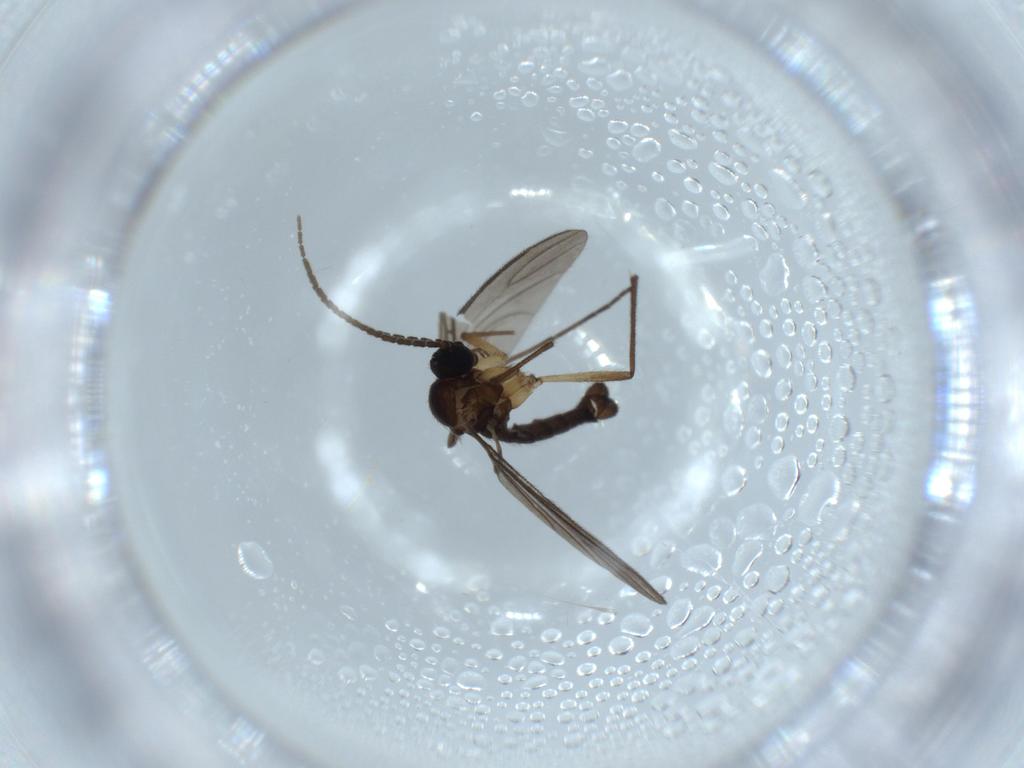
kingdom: Animalia
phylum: Arthropoda
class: Insecta
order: Diptera
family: Sciaridae
